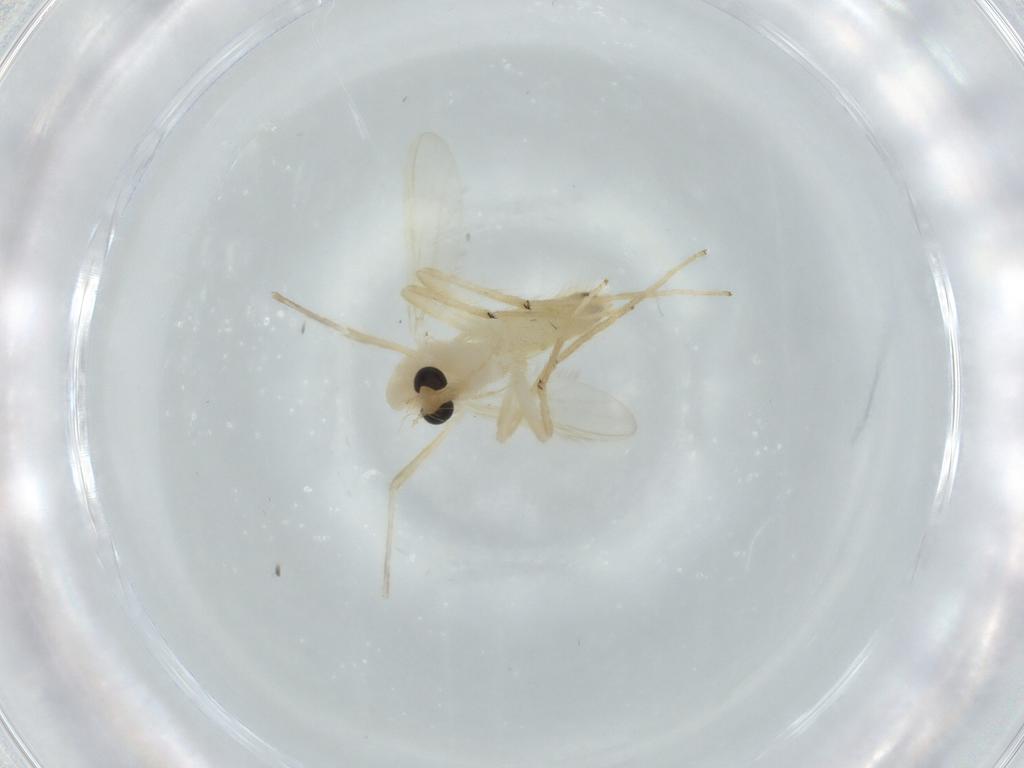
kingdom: Animalia
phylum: Arthropoda
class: Insecta
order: Diptera
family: Chironomidae
